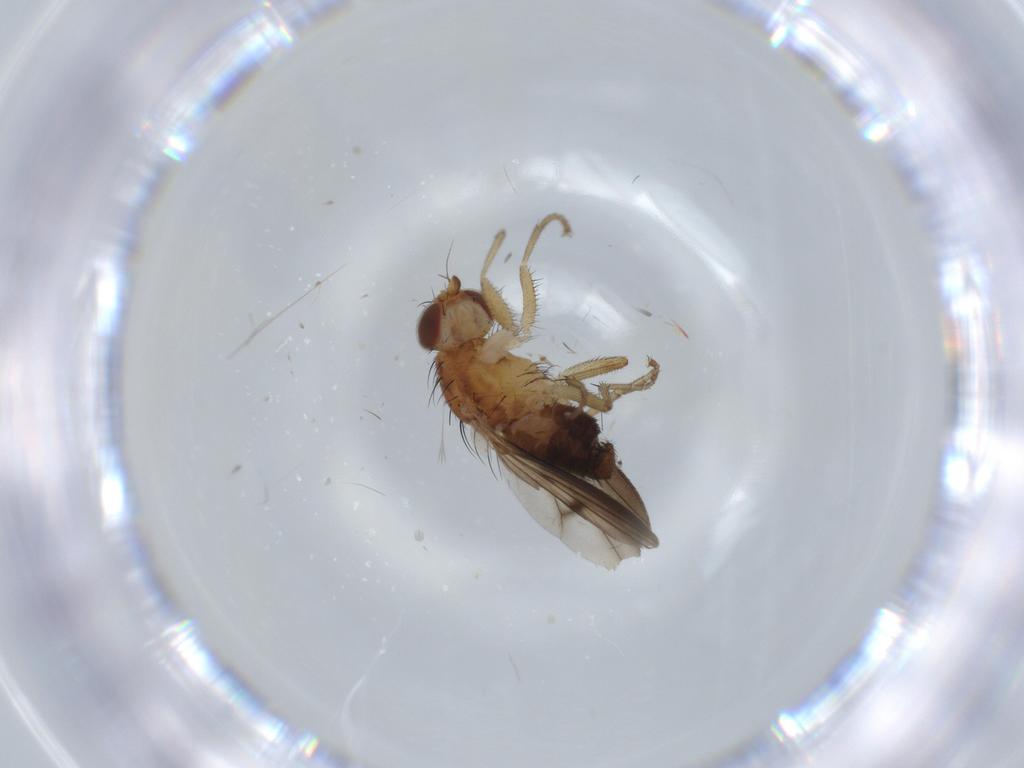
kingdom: Animalia
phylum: Arthropoda
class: Insecta
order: Diptera
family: Heleomyzidae
